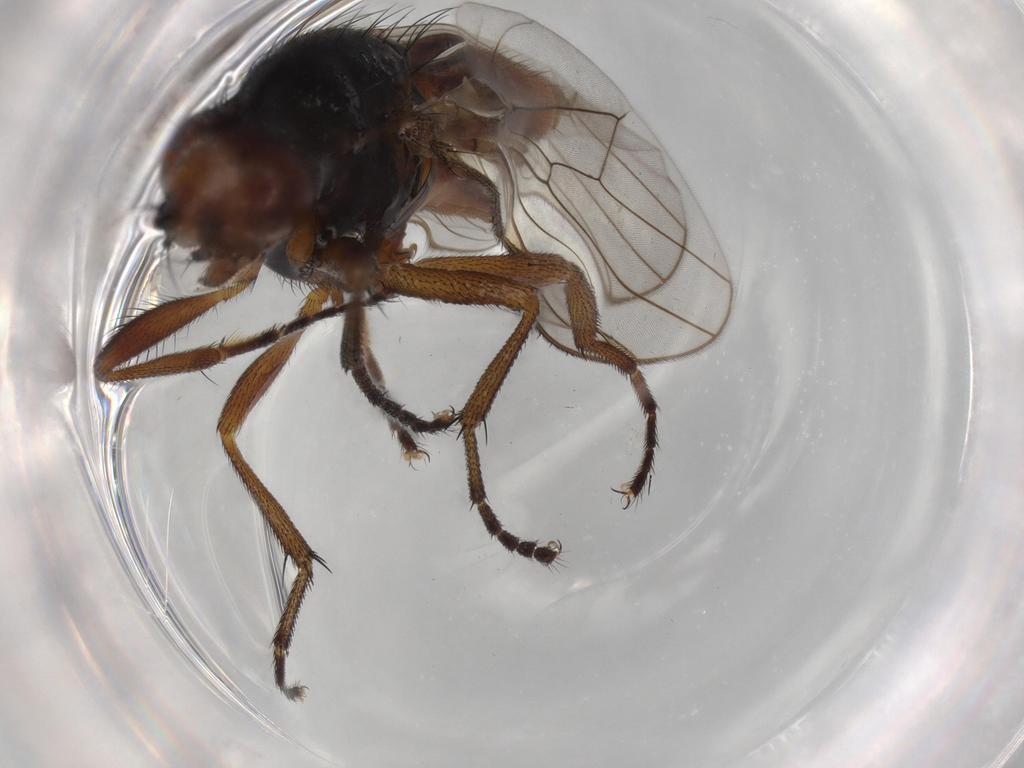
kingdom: Animalia
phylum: Arthropoda
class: Insecta
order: Diptera
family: Heleomyzidae
